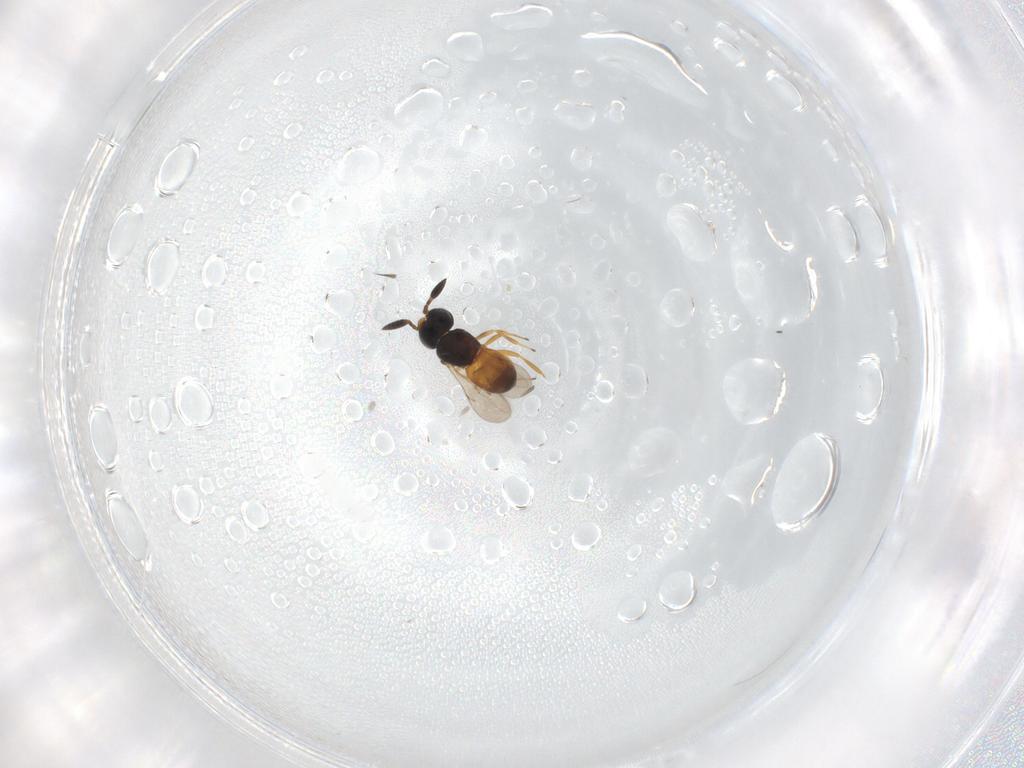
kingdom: Animalia
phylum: Arthropoda
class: Insecta
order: Hymenoptera
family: Scelionidae
